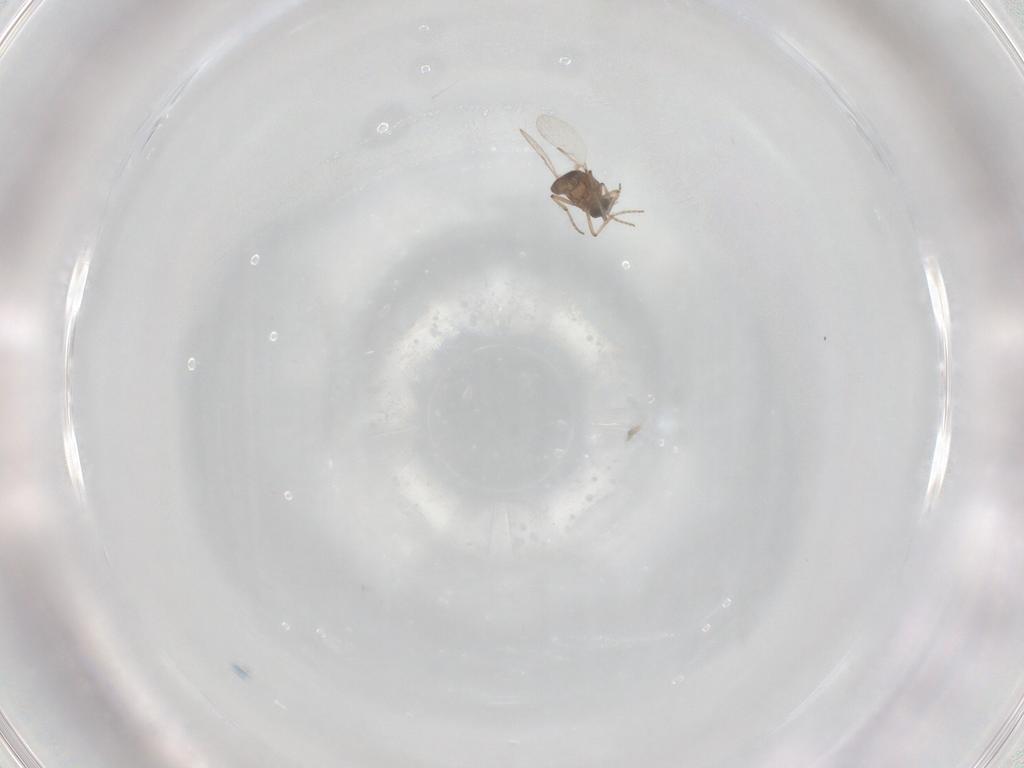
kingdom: Animalia
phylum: Arthropoda
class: Insecta
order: Diptera
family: Ceratopogonidae
